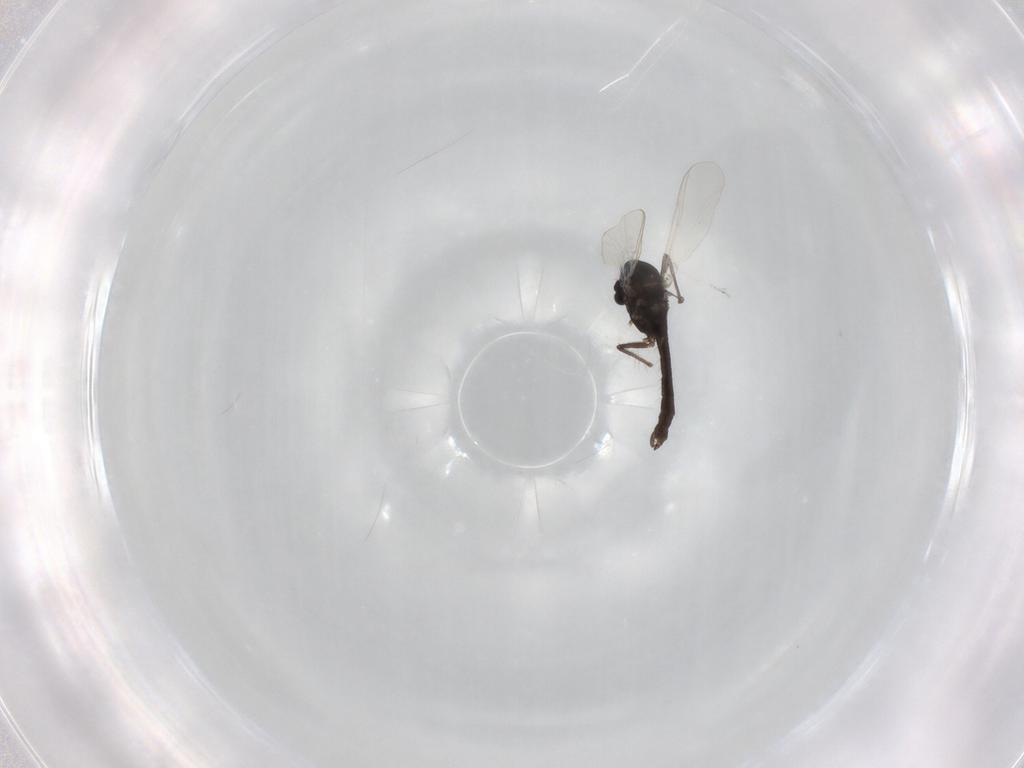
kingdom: Animalia
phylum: Arthropoda
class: Insecta
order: Diptera
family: Chironomidae
